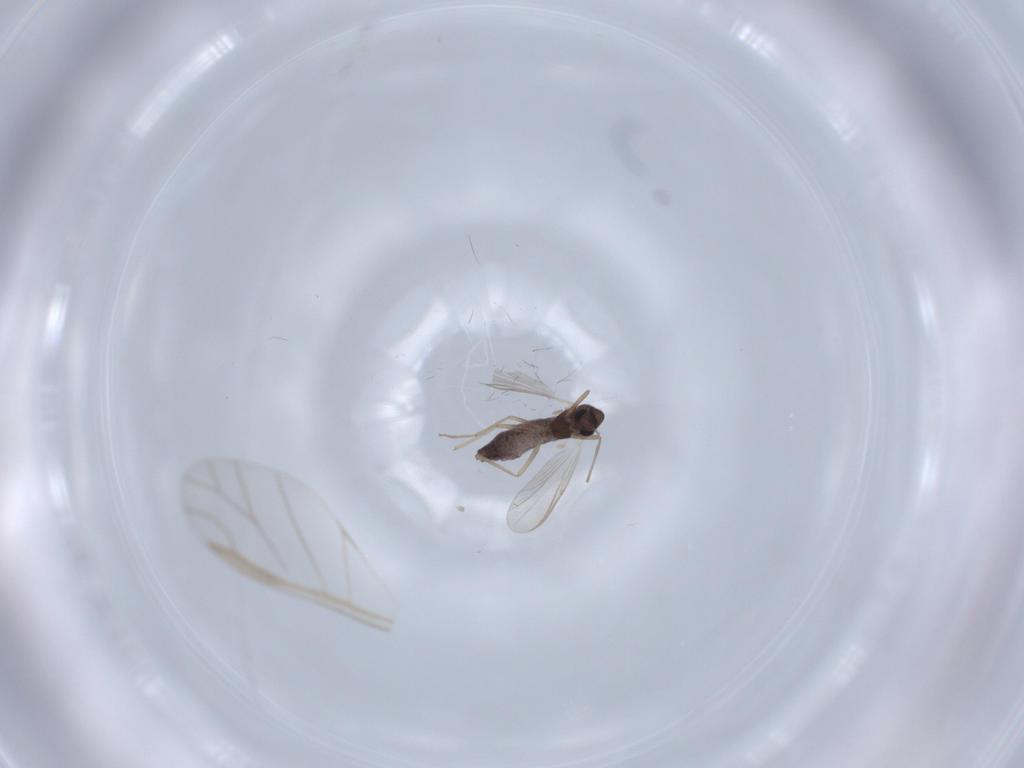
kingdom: Animalia
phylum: Arthropoda
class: Insecta
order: Diptera
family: Chironomidae
